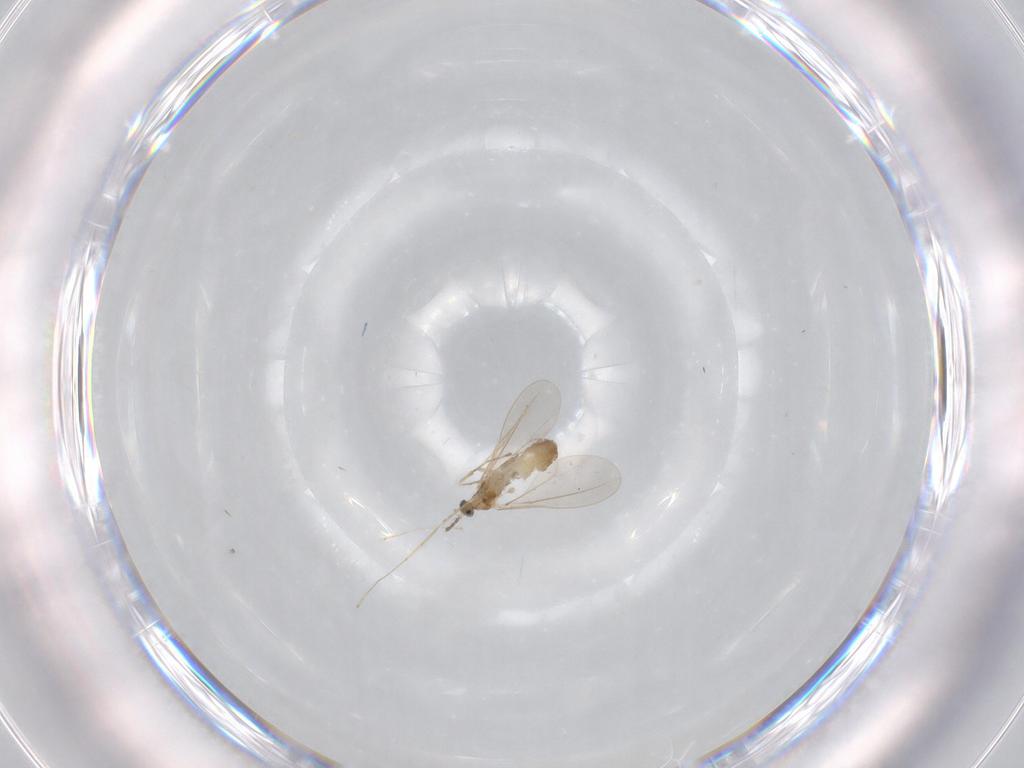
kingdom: Animalia
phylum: Arthropoda
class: Insecta
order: Diptera
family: Cecidomyiidae
